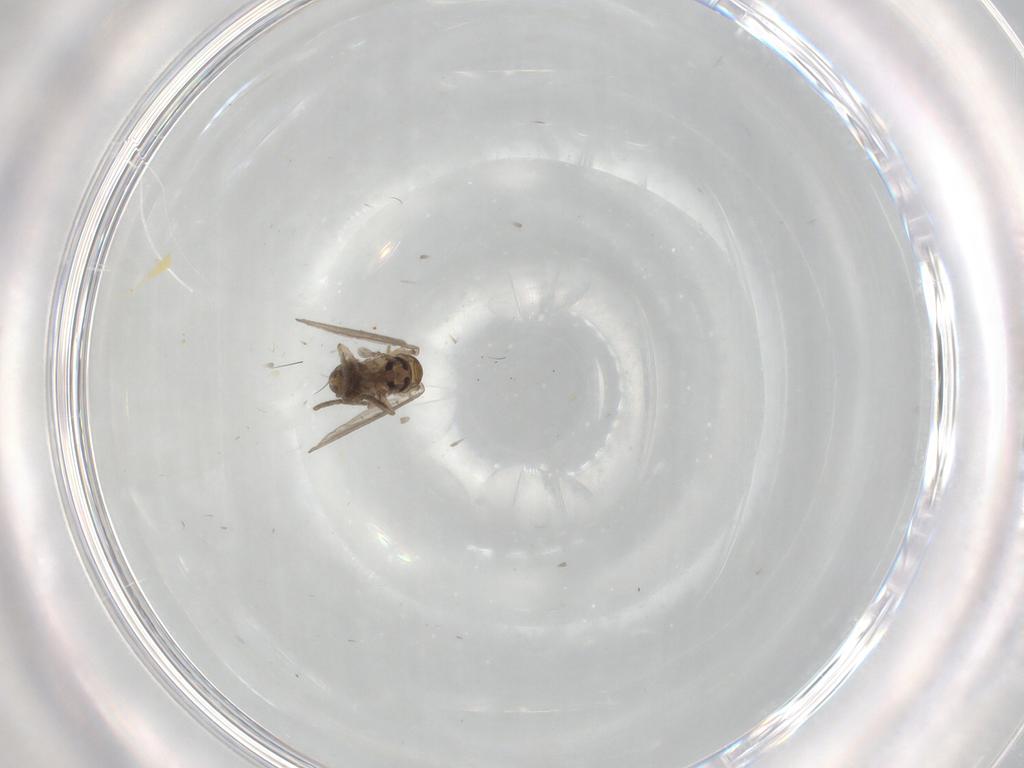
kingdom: Animalia
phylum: Arthropoda
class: Insecta
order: Diptera
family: Psychodidae
